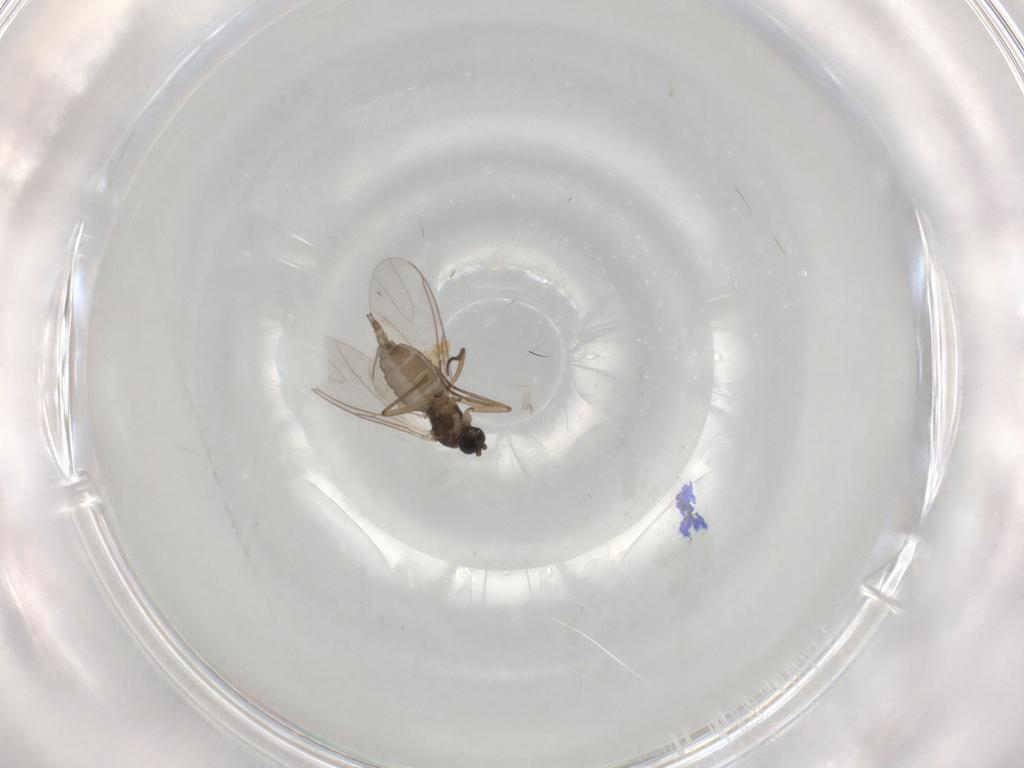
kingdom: Animalia
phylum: Arthropoda
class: Insecta
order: Diptera
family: Sciaridae
